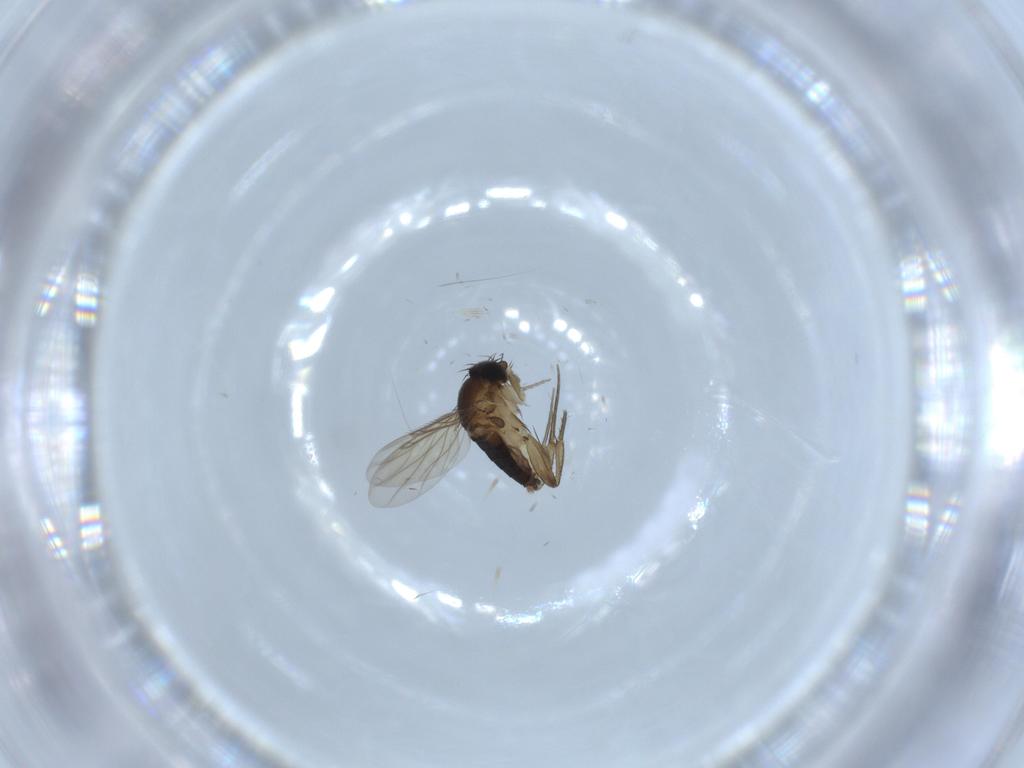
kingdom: Animalia
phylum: Arthropoda
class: Insecta
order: Diptera
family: Phoridae
